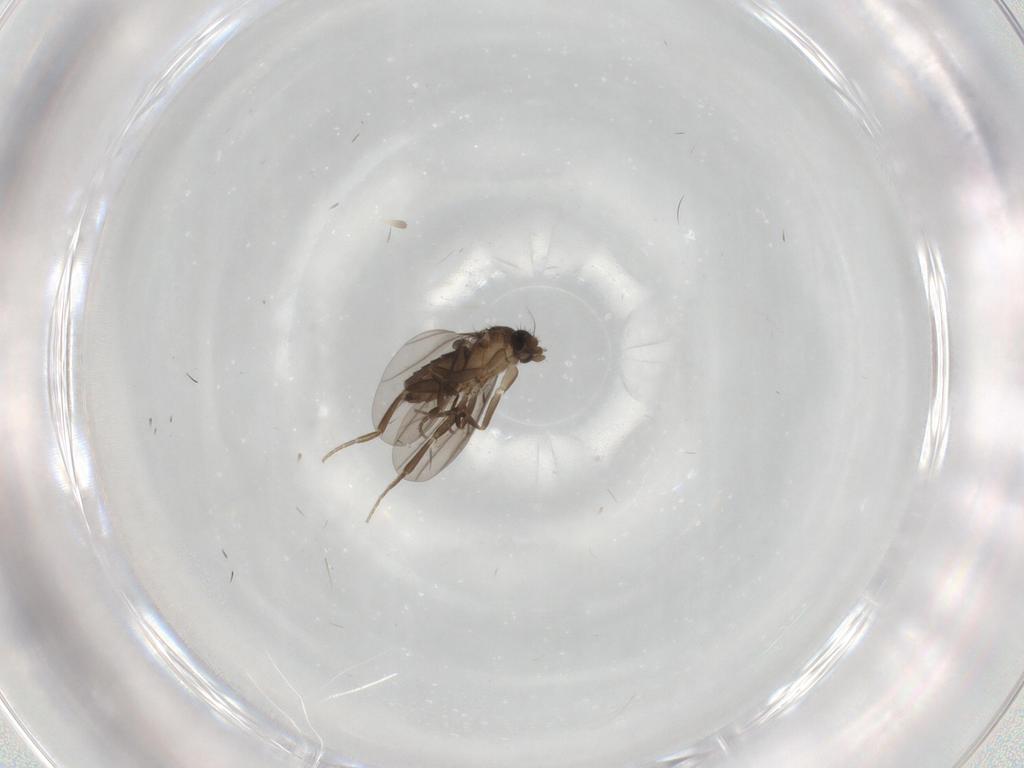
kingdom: Animalia
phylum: Arthropoda
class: Insecta
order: Diptera
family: Phoridae
